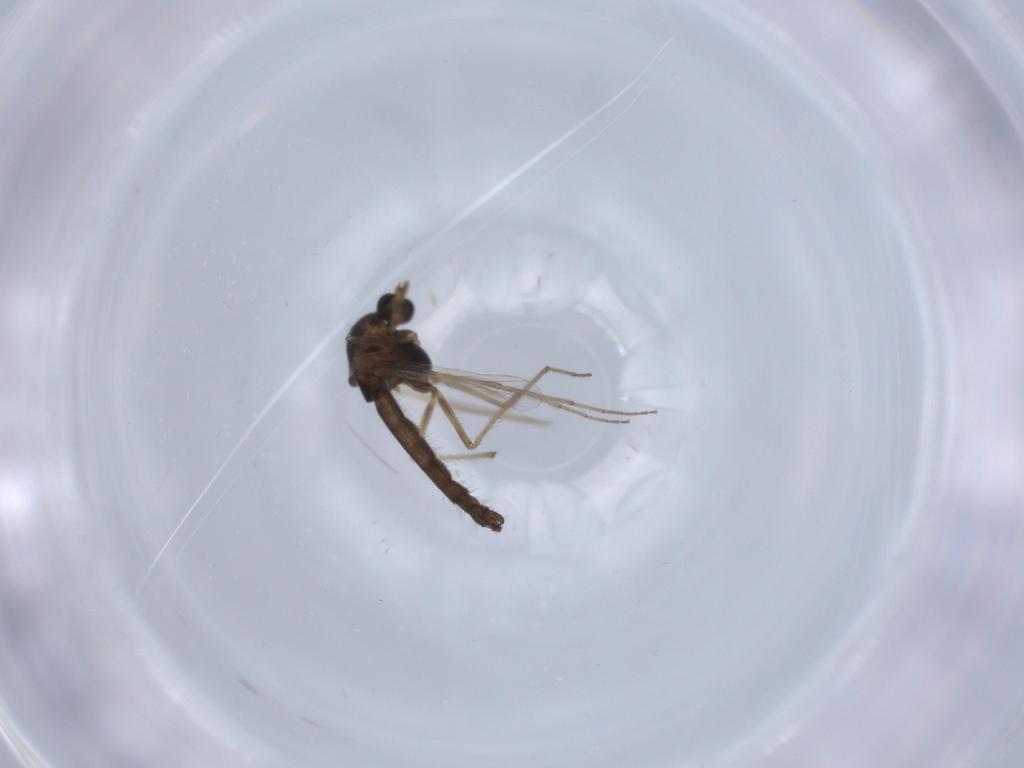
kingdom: Animalia
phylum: Arthropoda
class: Insecta
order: Diptera
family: Chironomidae
